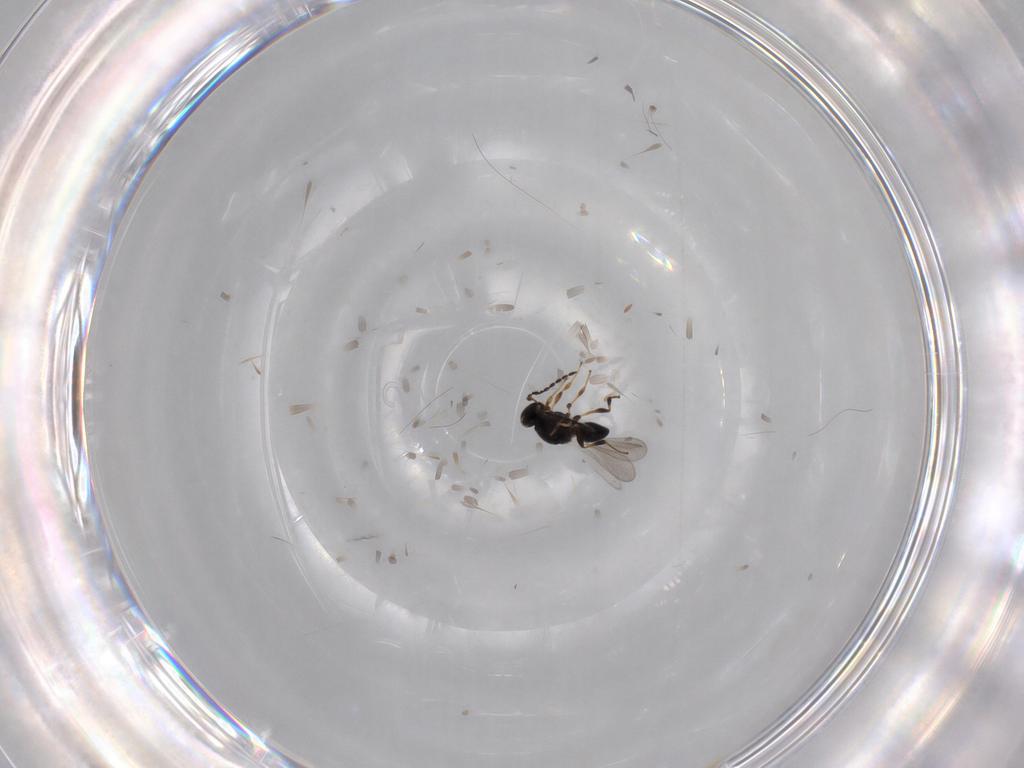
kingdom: Animalia
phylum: Arthropoda
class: Insecta
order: Hymenoptera
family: Platygastridae
